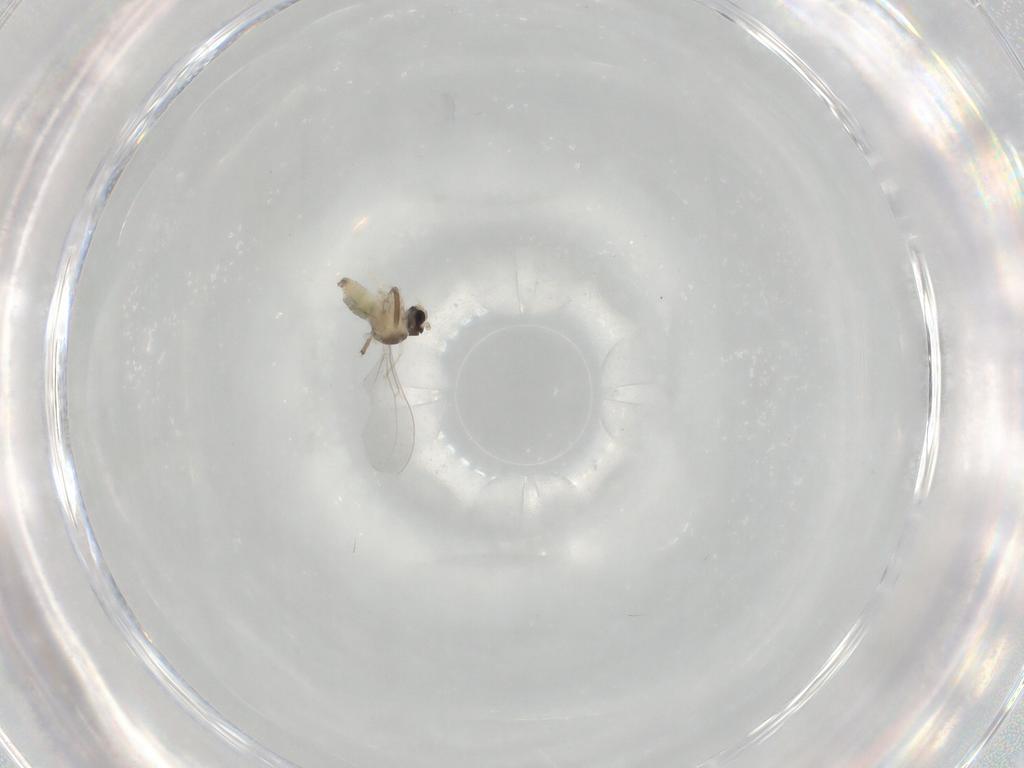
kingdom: Animalia
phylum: Arthropoda
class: Insecta
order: Diptera
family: Cecidomyiidae
